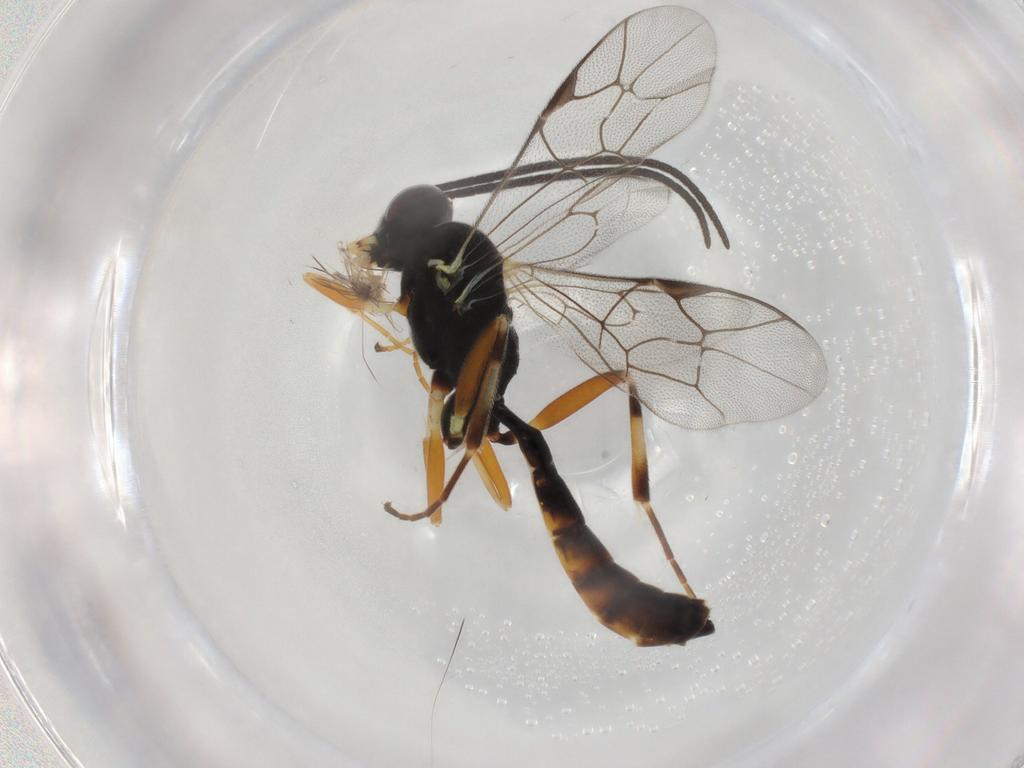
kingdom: Animalia
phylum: Arthropoda
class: Insecta
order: Hymenoptera
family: Ichneumonidae
